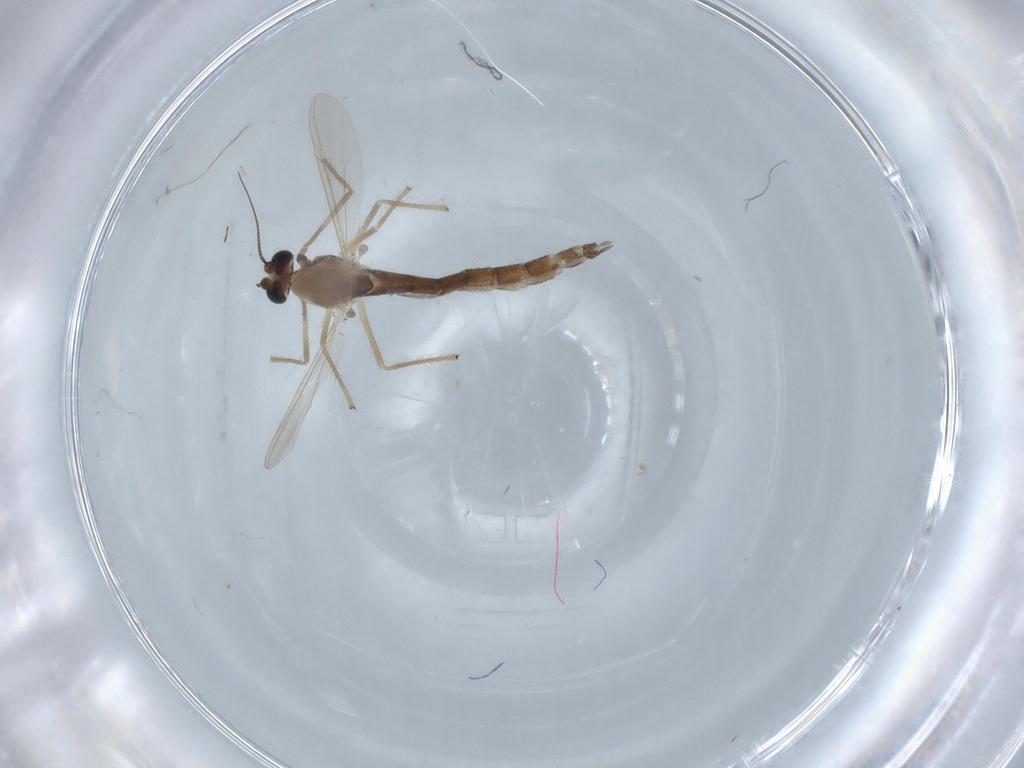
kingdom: Animalia
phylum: Arthropoda
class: Insecta
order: Diptera
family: Chironomidae
